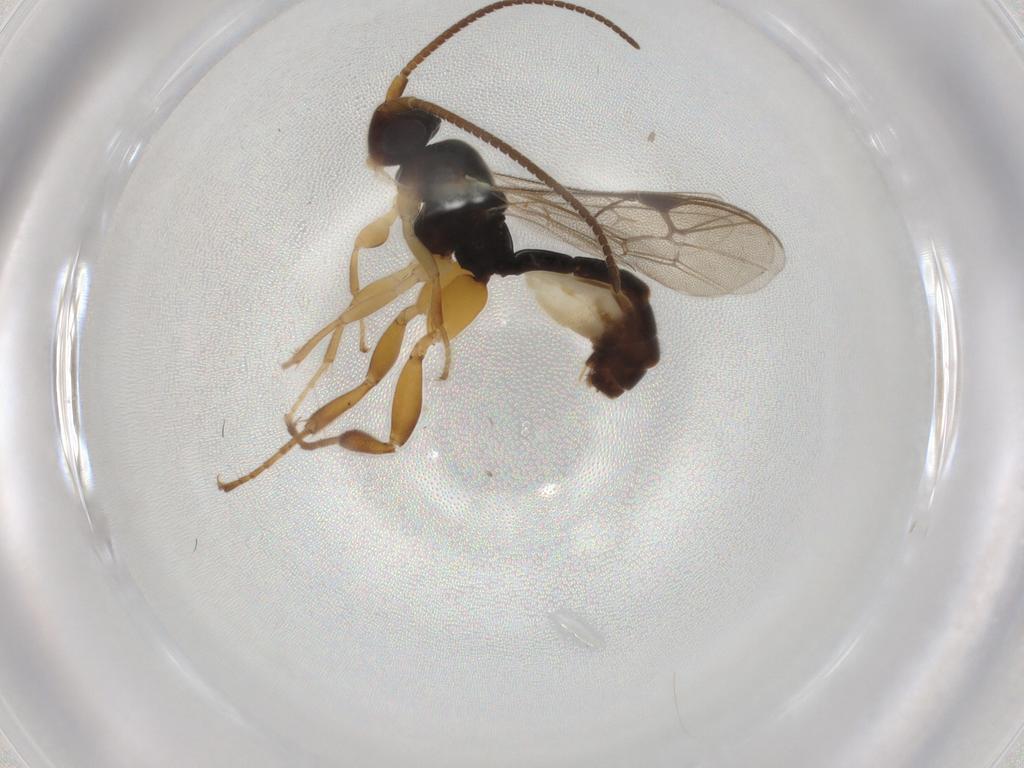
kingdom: Animalia
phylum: Arthropoda
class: Insecta
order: Hymenoptera
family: Ichneumonidae
